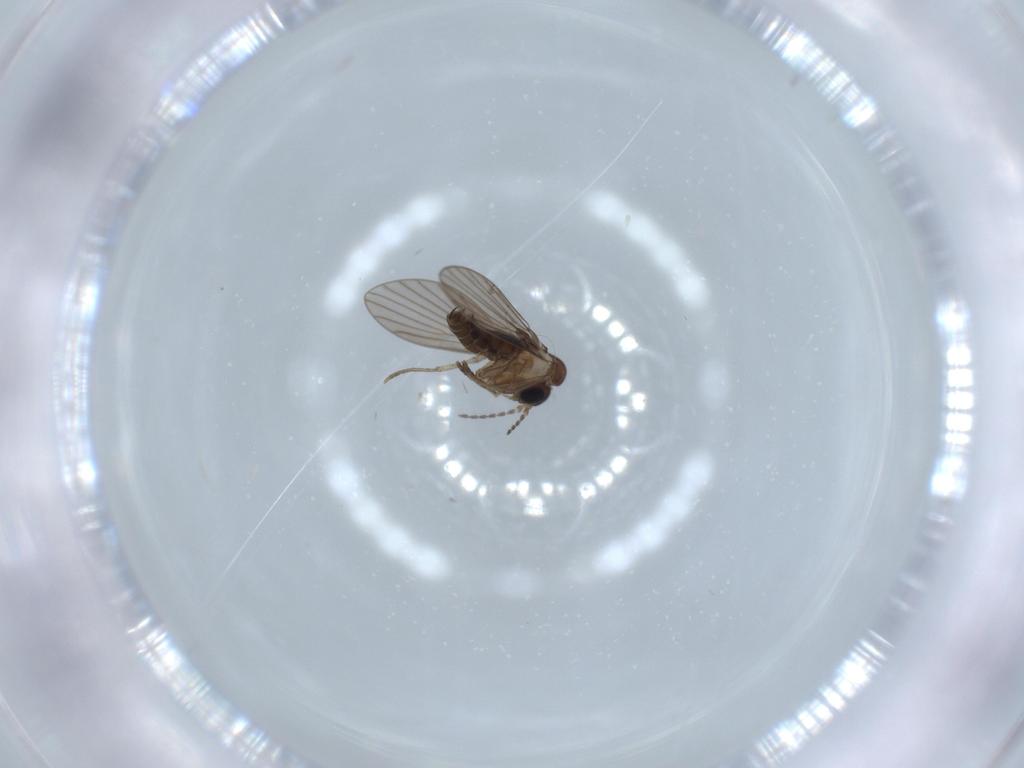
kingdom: Animalia
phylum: Arthropoda
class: Insecta
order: Diptera
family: Psychodidae
